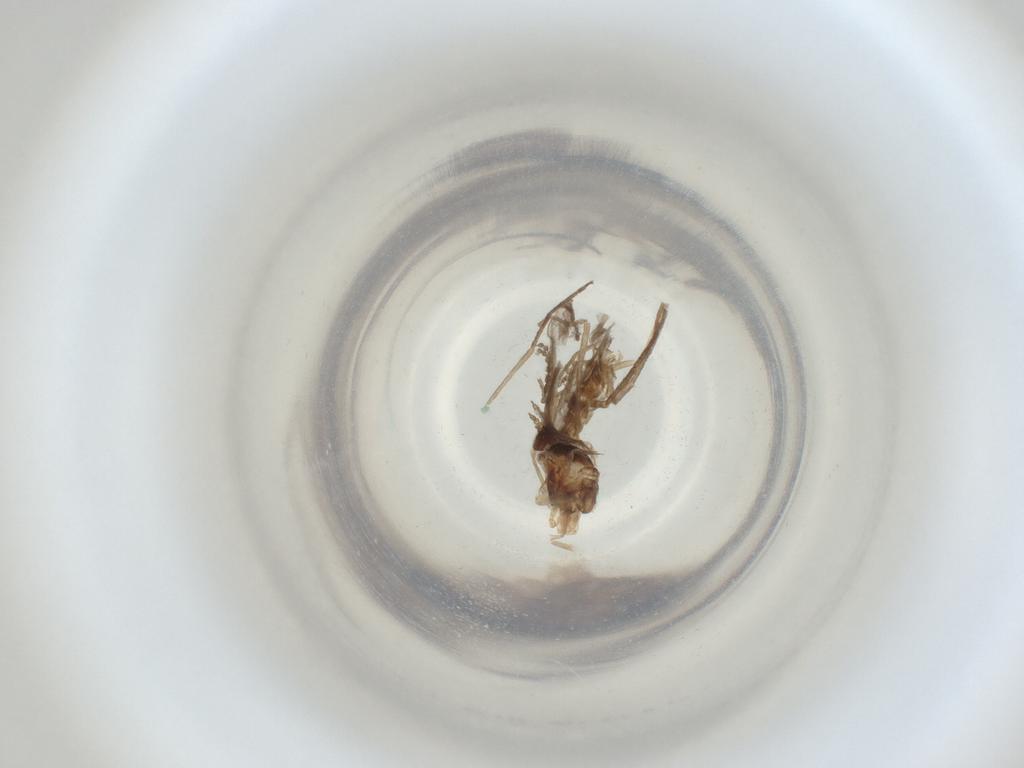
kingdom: Animalia
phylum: Arthropoda
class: Insecta
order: Diptera
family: Cecidomyiidae
